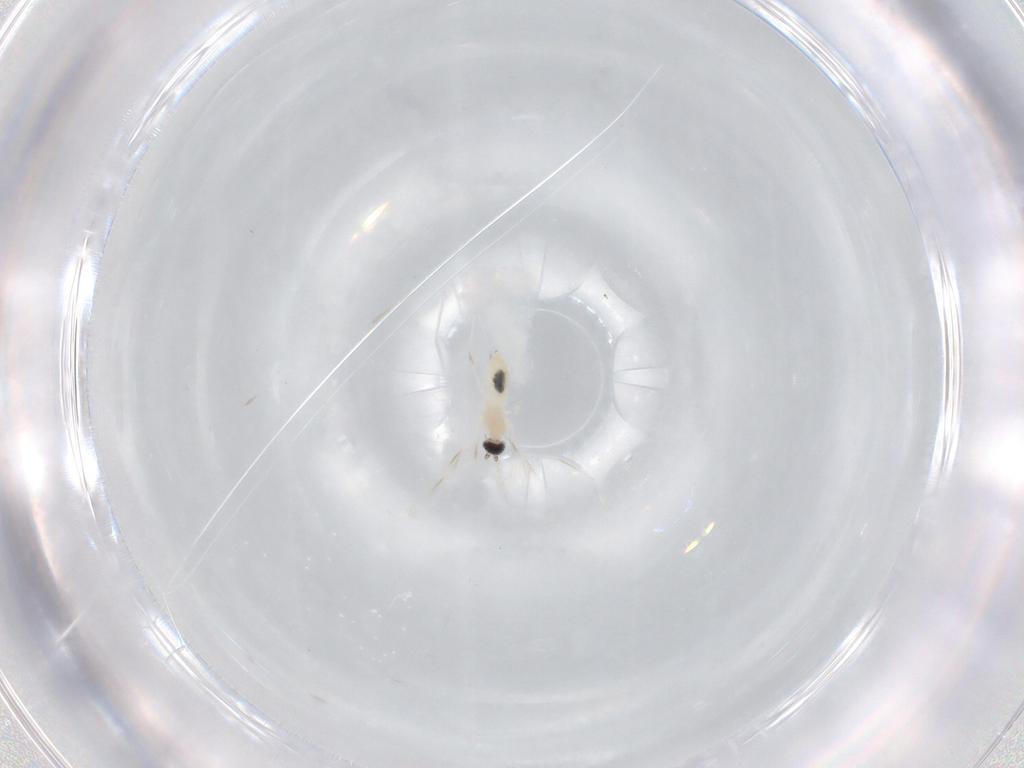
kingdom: Animalia
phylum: Arthropoda
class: Insecta
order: Diptera
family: Cecidomyiidae
